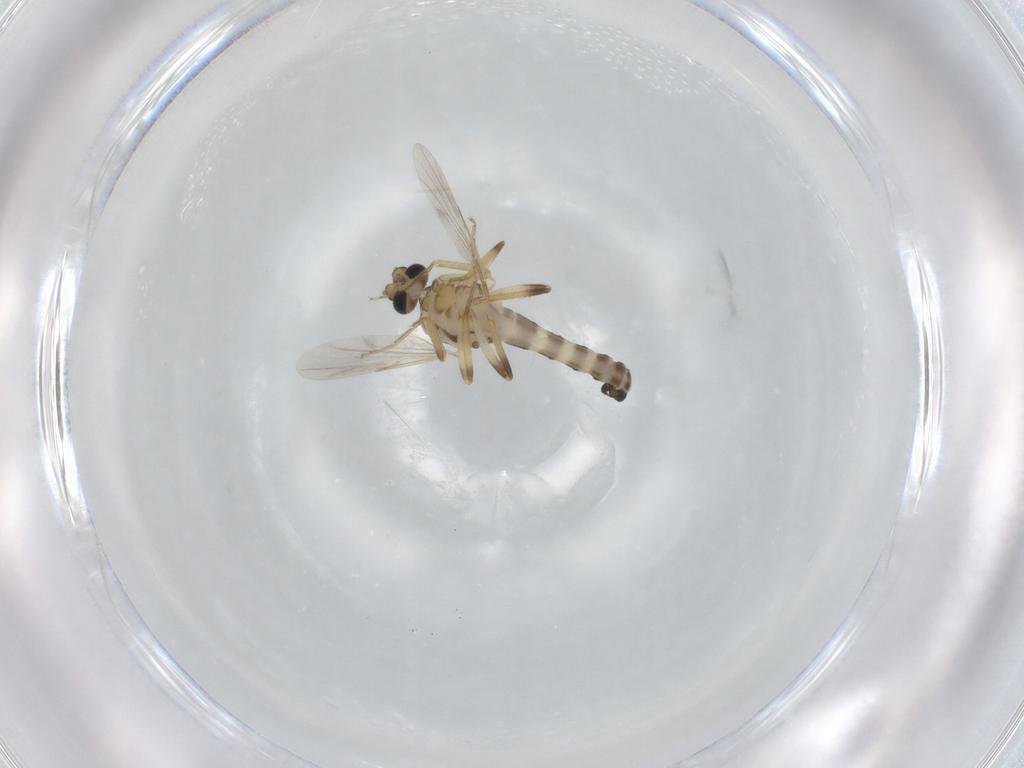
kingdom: Animalia
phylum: Arthropoda
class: Insecta
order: Diptera
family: Ceratopogonidae
